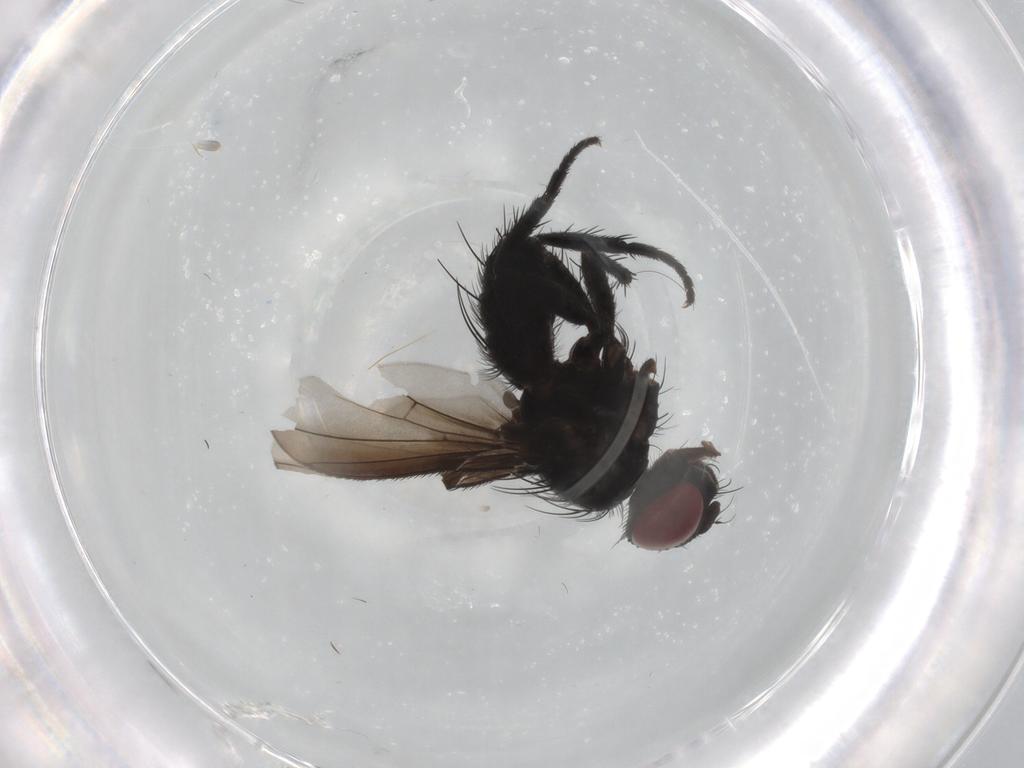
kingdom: Animalia
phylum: Arthropoda
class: Insecta
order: Diptera
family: Tachinidae
